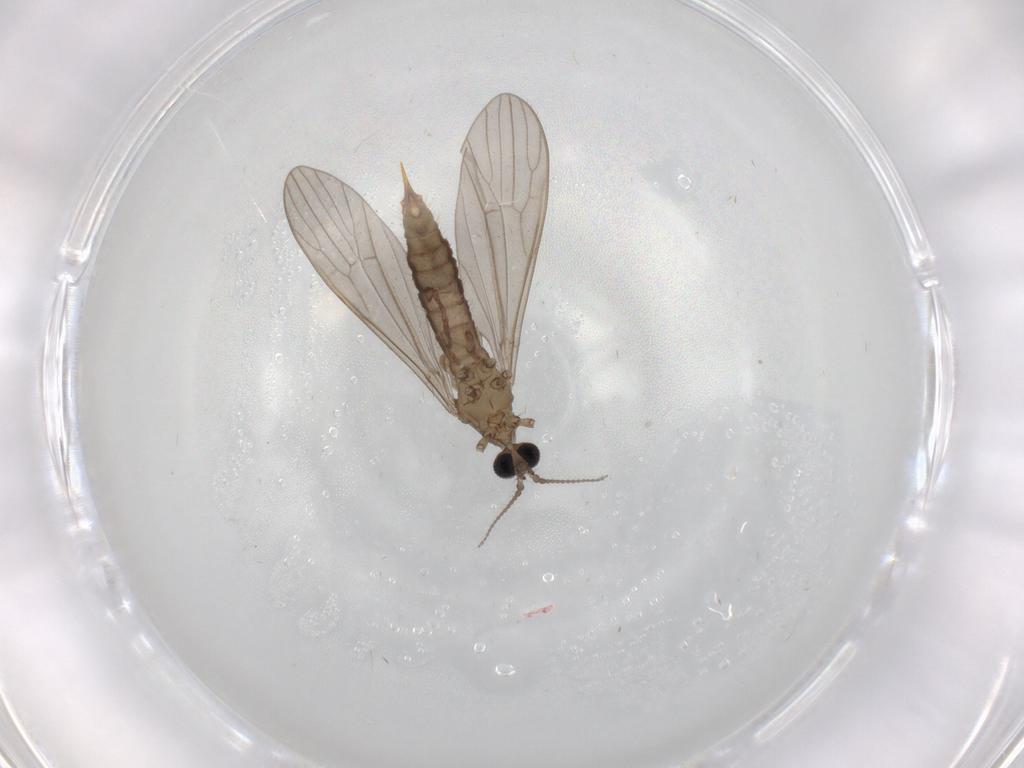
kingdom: Animalia
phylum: Arthropoda
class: Insecta
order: Diptera
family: Limoniidae
